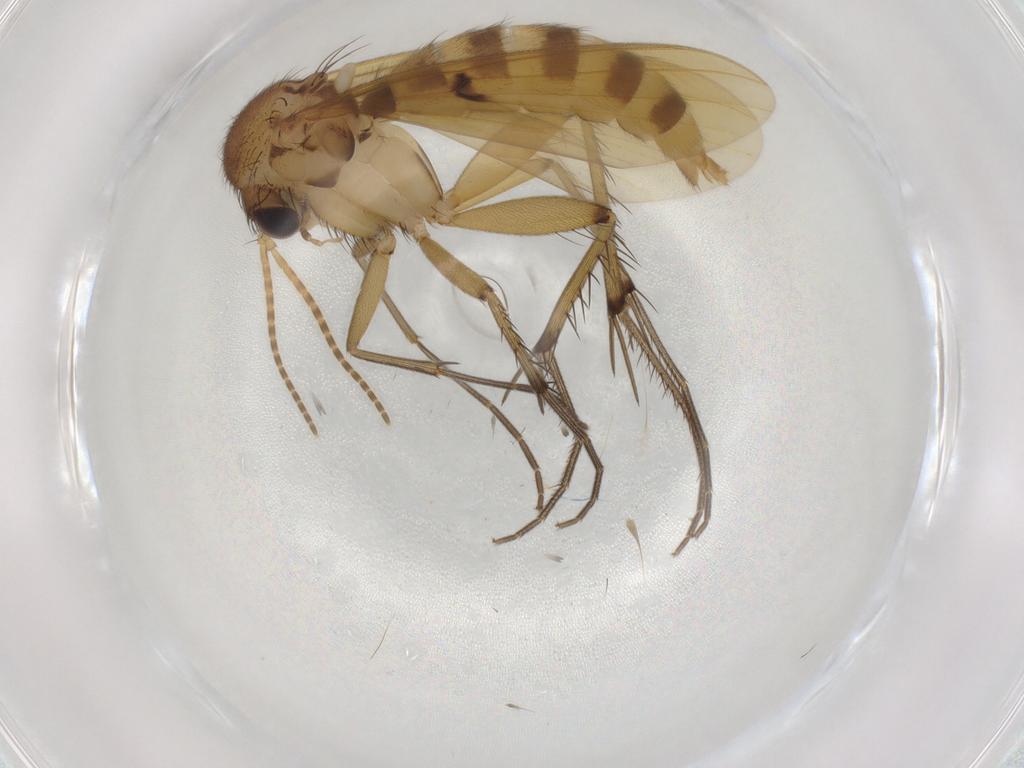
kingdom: Animalia
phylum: Arthropoda
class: Insecta
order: Diptera
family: Mycetophilidae
